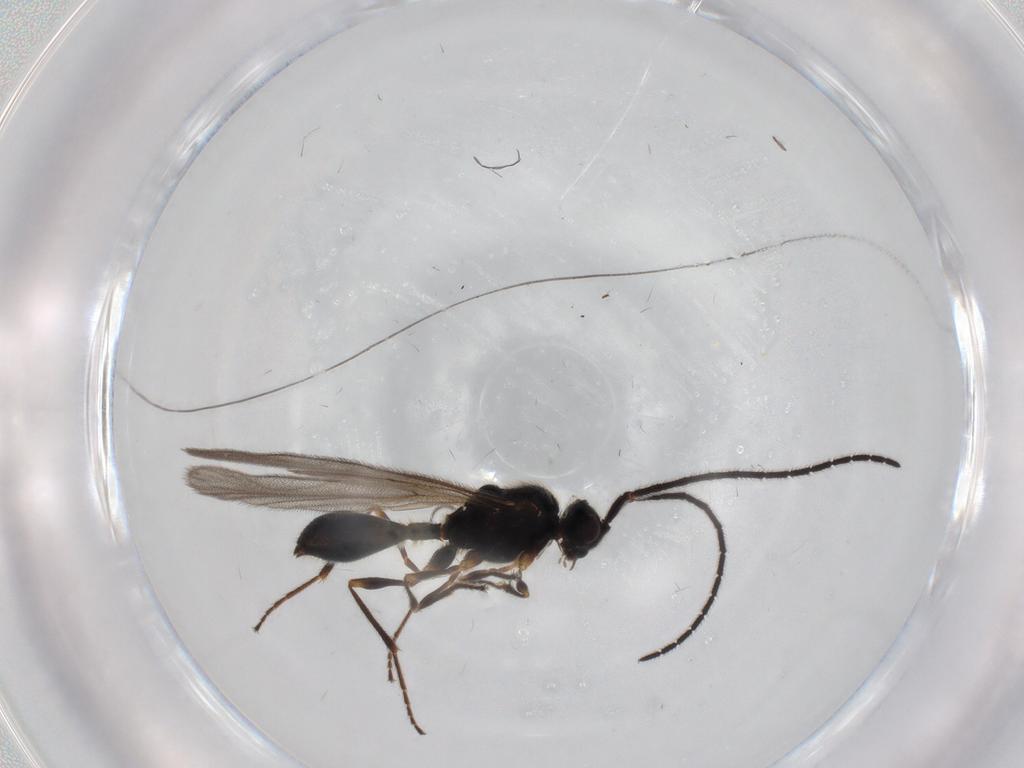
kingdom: Animalia
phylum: Arthropoda
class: Insecta
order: Hymenoptera
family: Diapriidae
